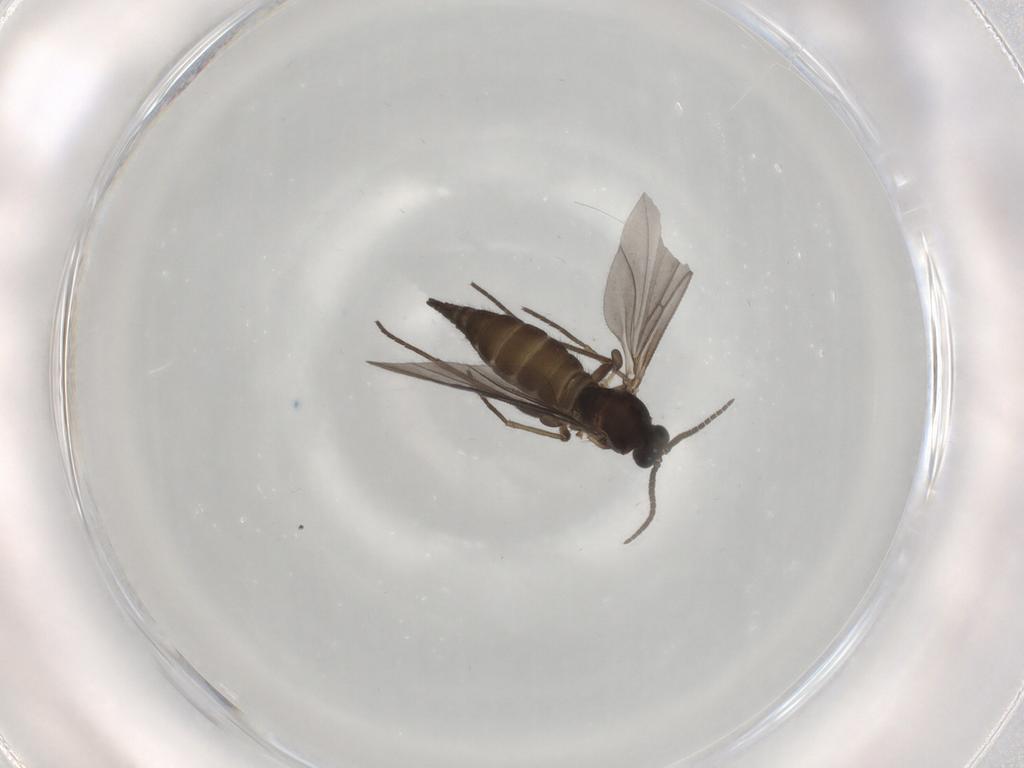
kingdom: Animalia
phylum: Arthropoda
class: Insecta
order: Diptera
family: Sciaridae
